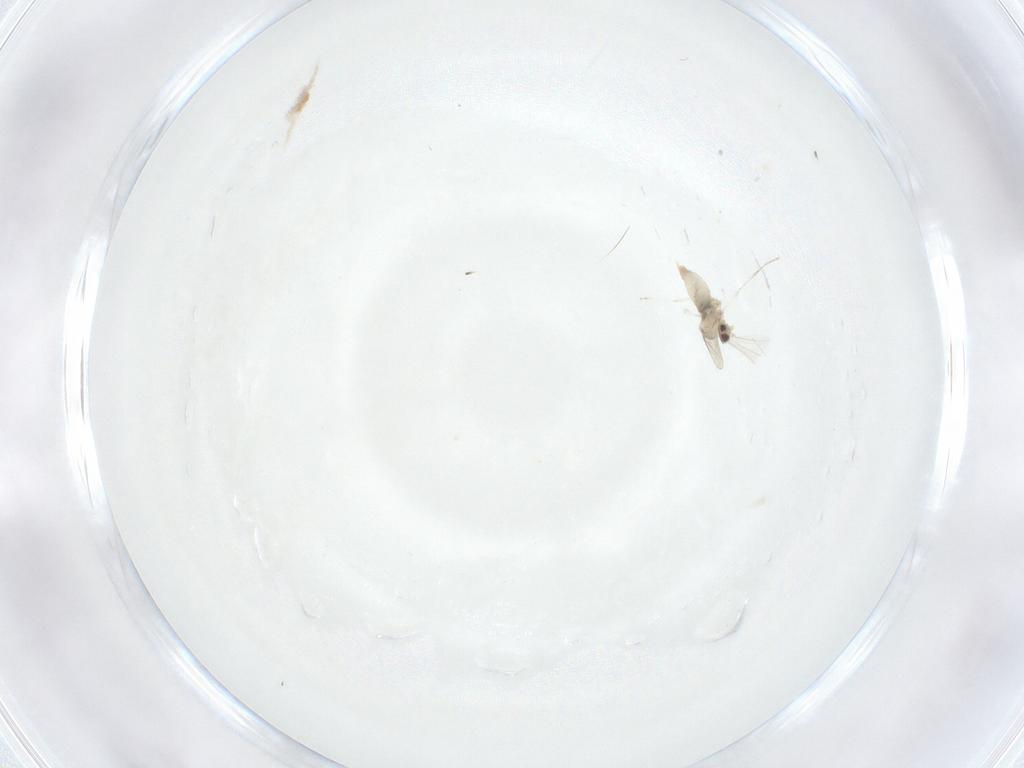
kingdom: Animalia
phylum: Arthropoda
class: Insecta
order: Diptera
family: Cecidomyiidae
